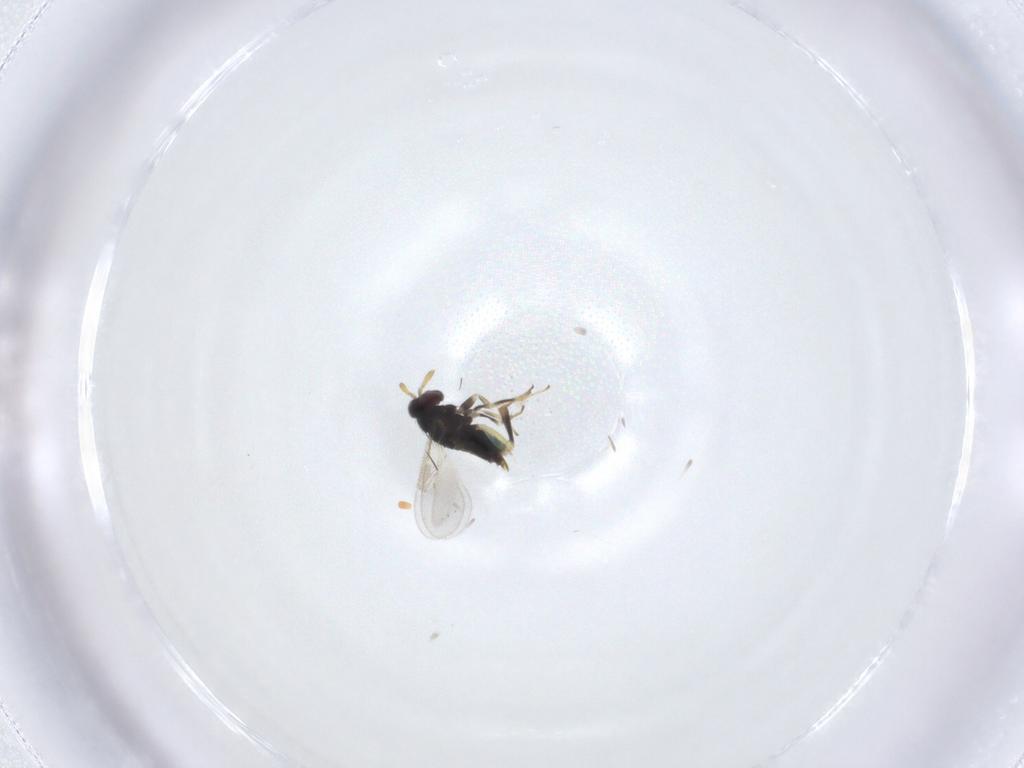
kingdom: Animalia
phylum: Arthropoda
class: Insecta
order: Hymenoptera
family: Aphelinidae
